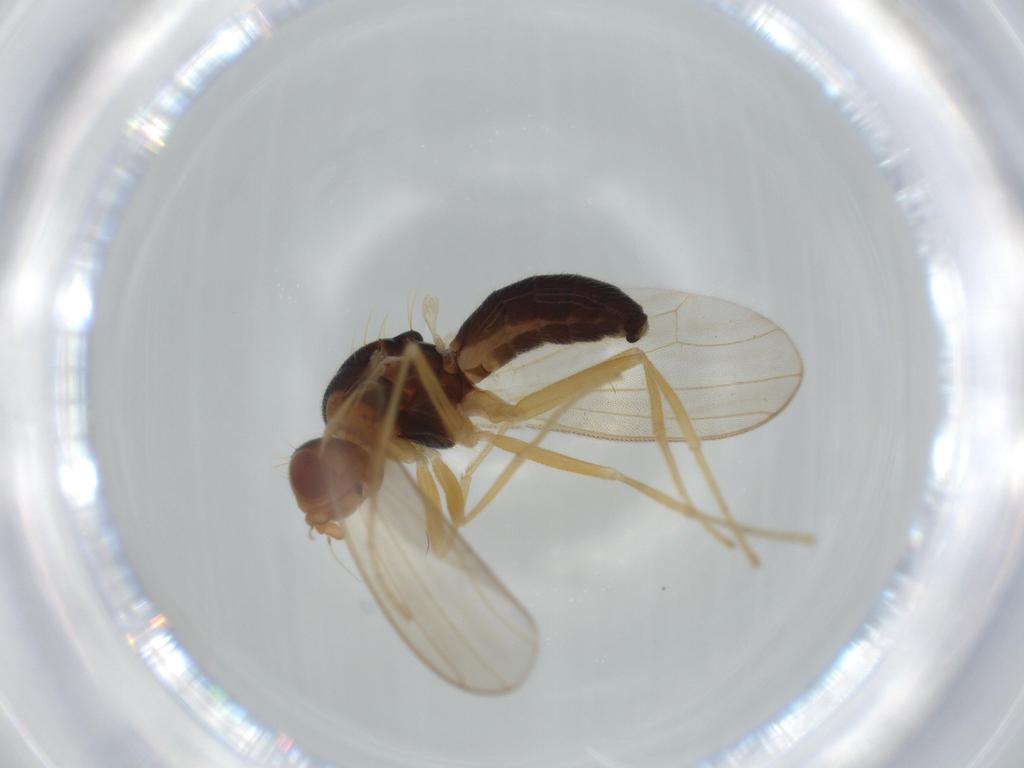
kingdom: Animalia
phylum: Arthropoda
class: Insecta
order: Diptera
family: Psilidae
